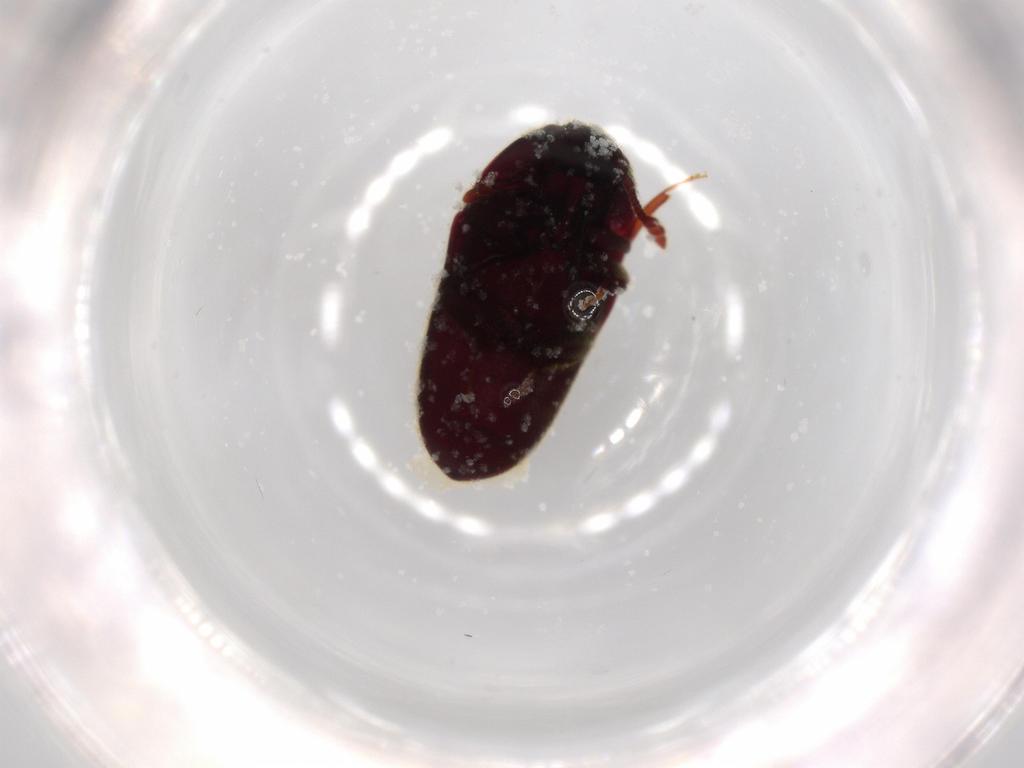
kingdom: Animalia
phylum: Arthropoda
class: Insecta
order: Coleoptera
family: Throscidae
